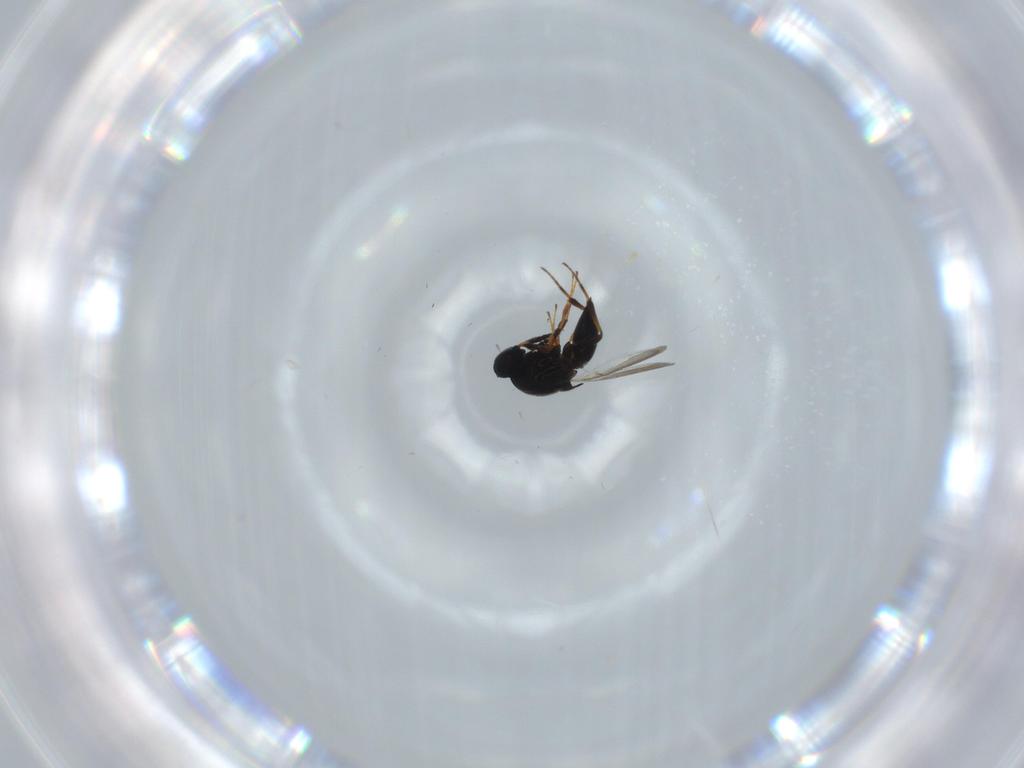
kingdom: Animalia
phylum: Arthropoda
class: Insecta
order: Hymenoptera
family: Platygastridae
